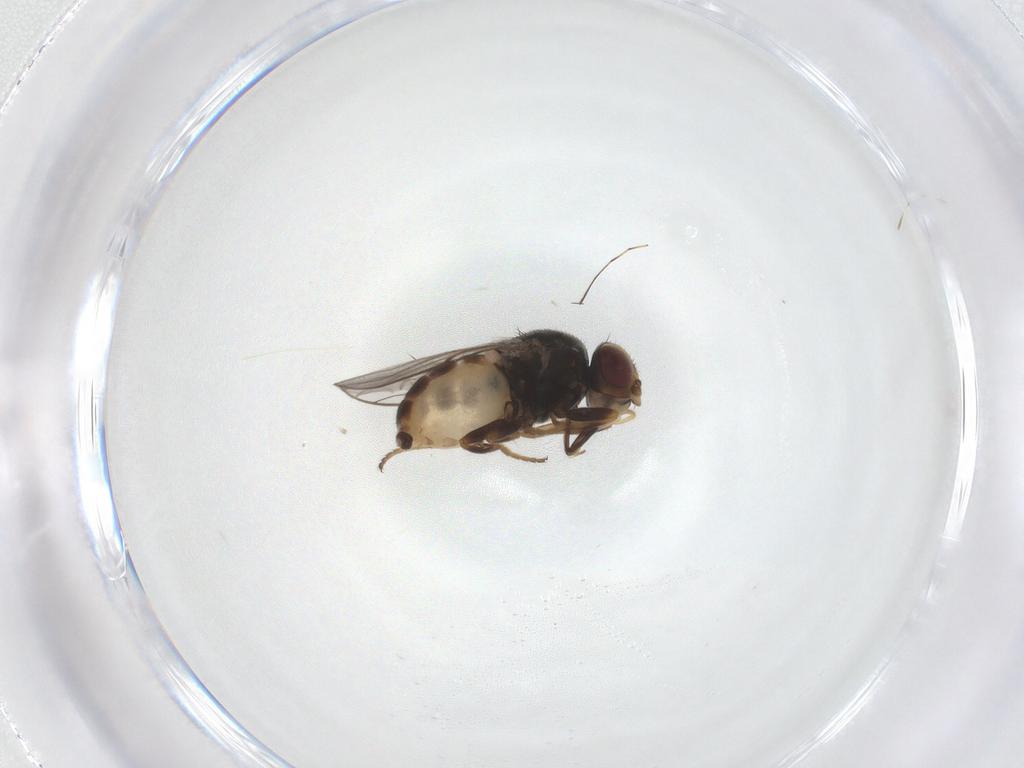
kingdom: Animalia
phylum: Arthropoda
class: Insecta
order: Diptera
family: Chloropidae
